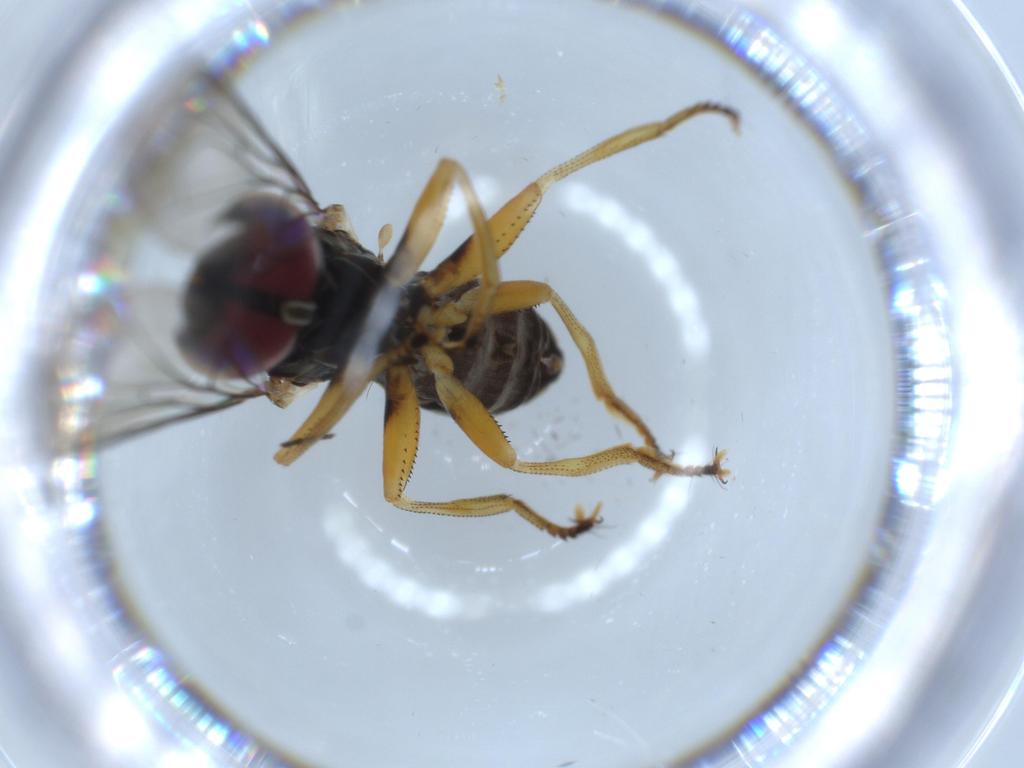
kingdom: Animalia
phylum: Arthropoda
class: Insecta
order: Diptera
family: Sciaridae
